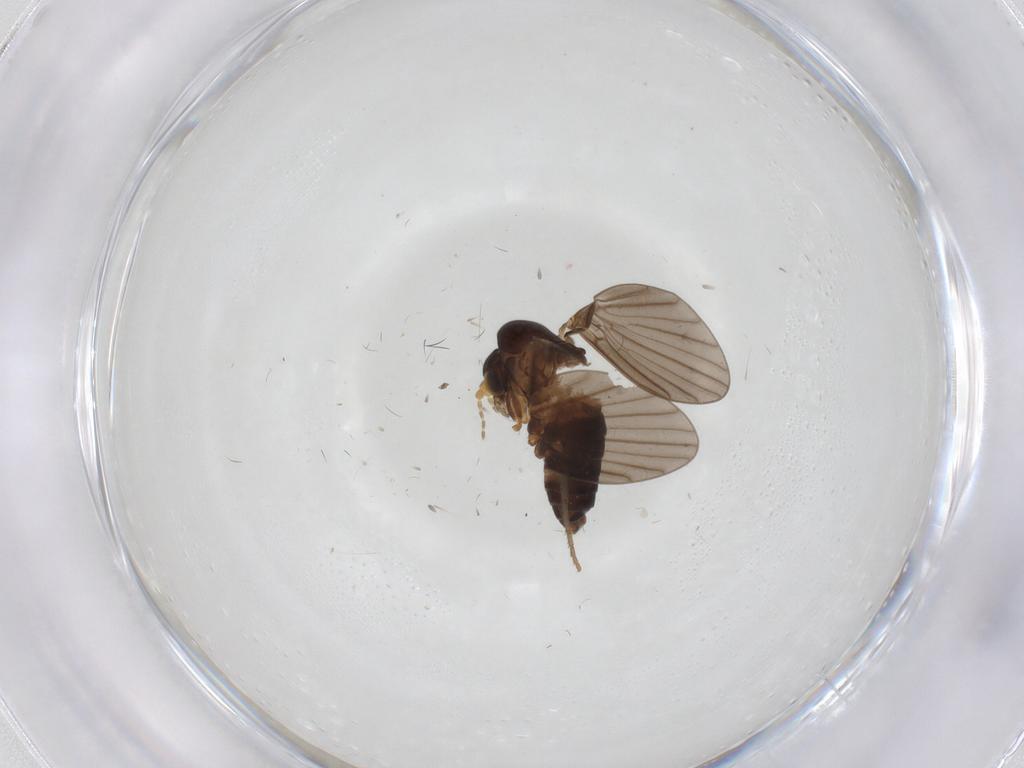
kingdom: Animalia
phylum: Arthropoda
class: Insecta
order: Diptera
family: Psychodidae
